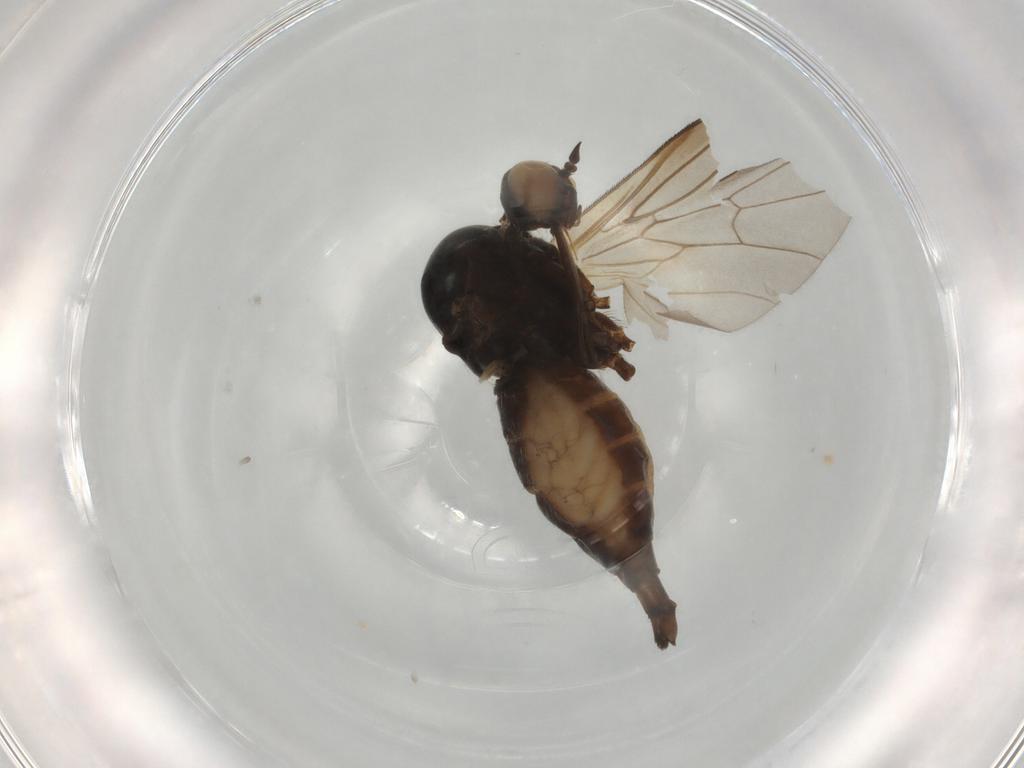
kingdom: Animalia
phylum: Arthropoda
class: Insecta
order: Diptera
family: Empididae
